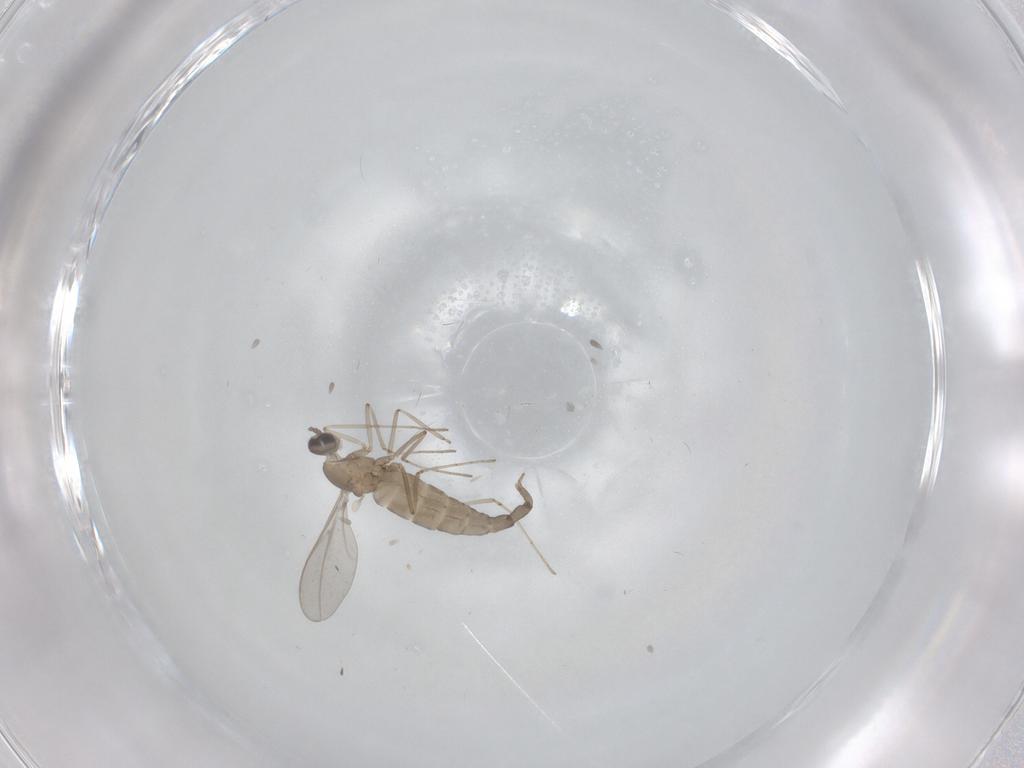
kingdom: Animalia
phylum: Arthropoda
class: Insecta
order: Diptera
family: Cecidomyiidae
